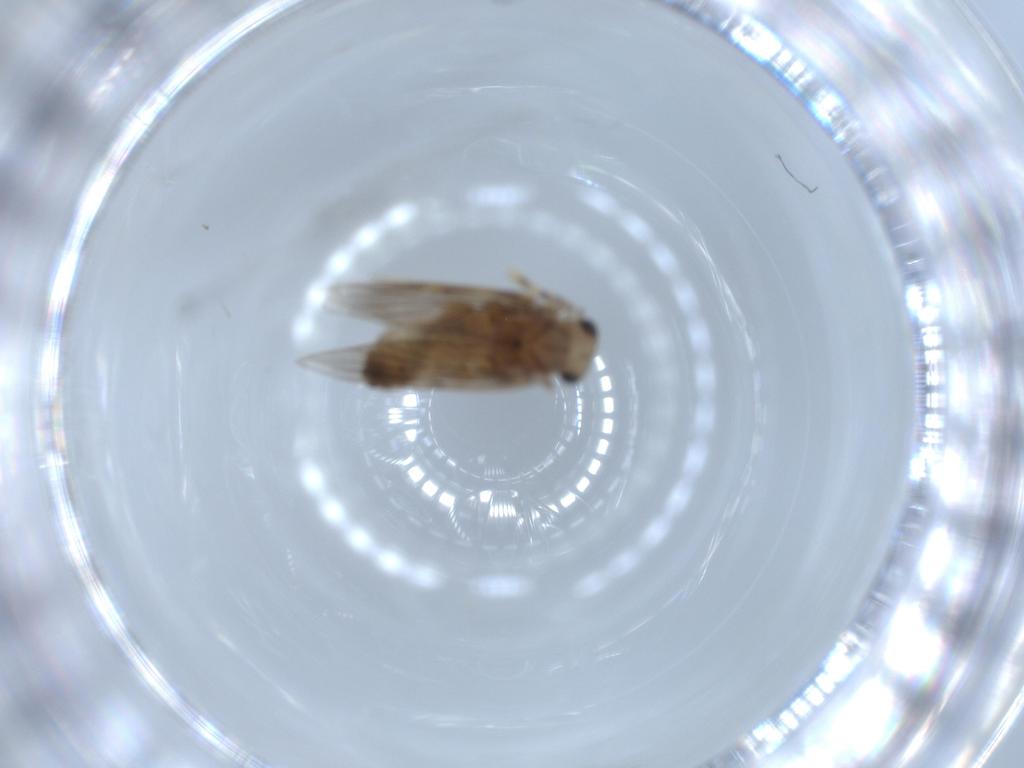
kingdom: Animalia
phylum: Arthropoda
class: Insecta
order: Psocodea
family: Lepidopsocidae
